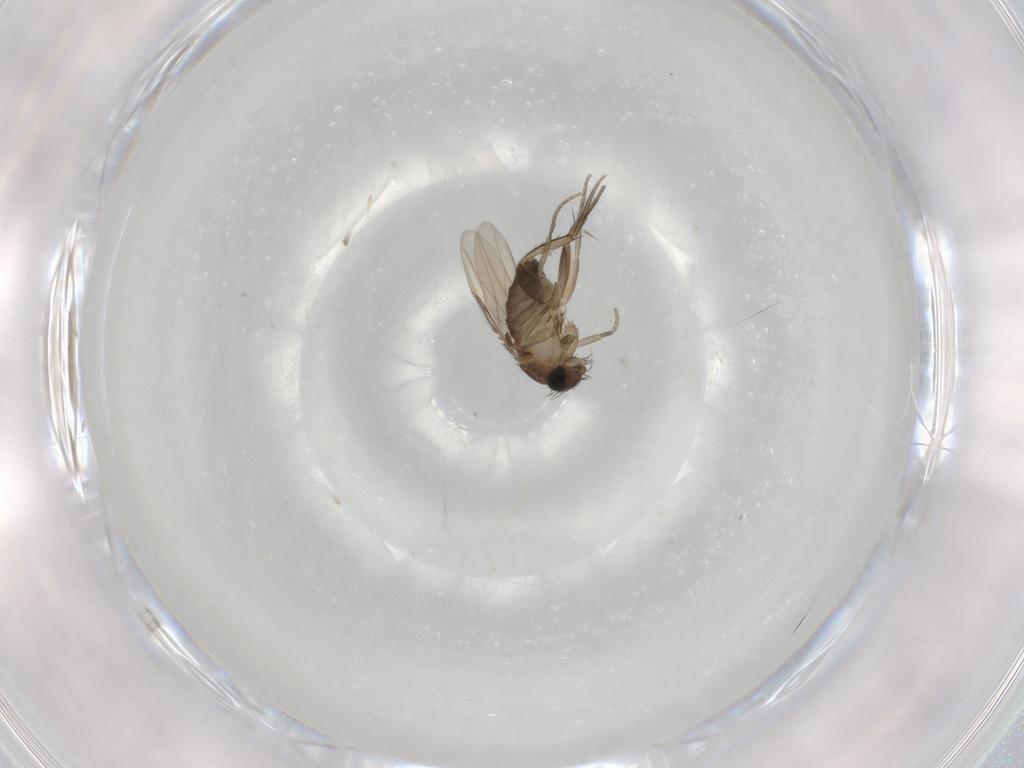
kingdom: Animalia
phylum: Arthropoda
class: Insecta
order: Diptera
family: Phoridae
